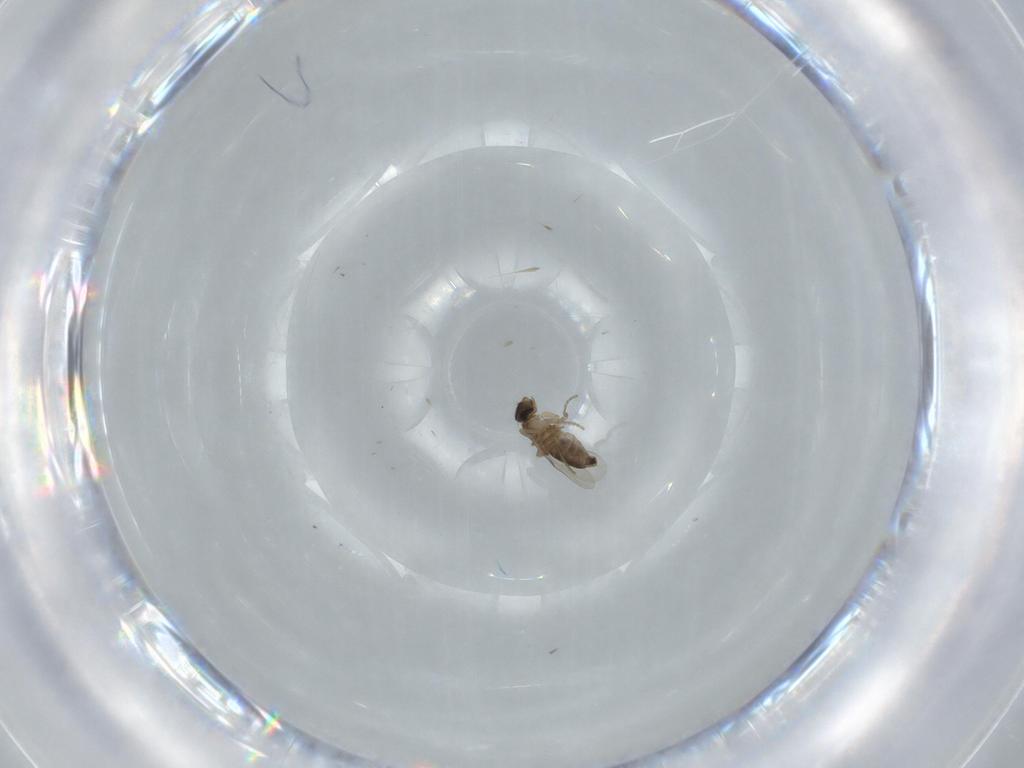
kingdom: Animalia
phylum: Arthropoda
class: Insecta
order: Diptera
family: Phoridae
